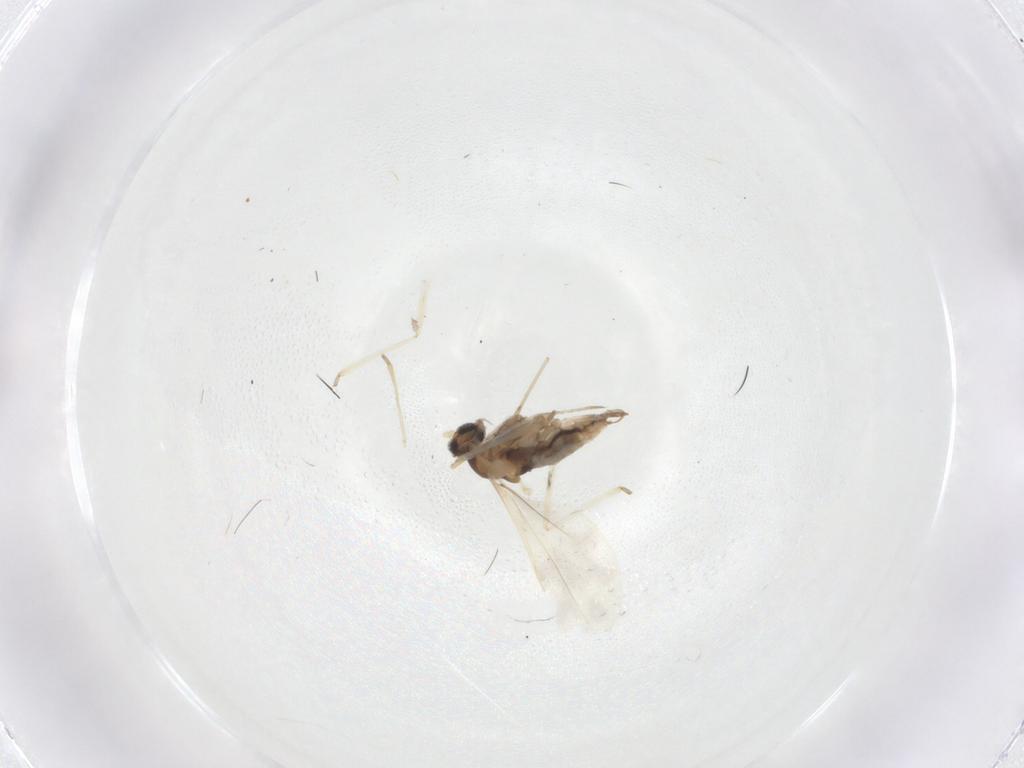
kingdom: Animalia
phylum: Arthropoda
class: Insecta
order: Diptera
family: Cecidomyiidae
